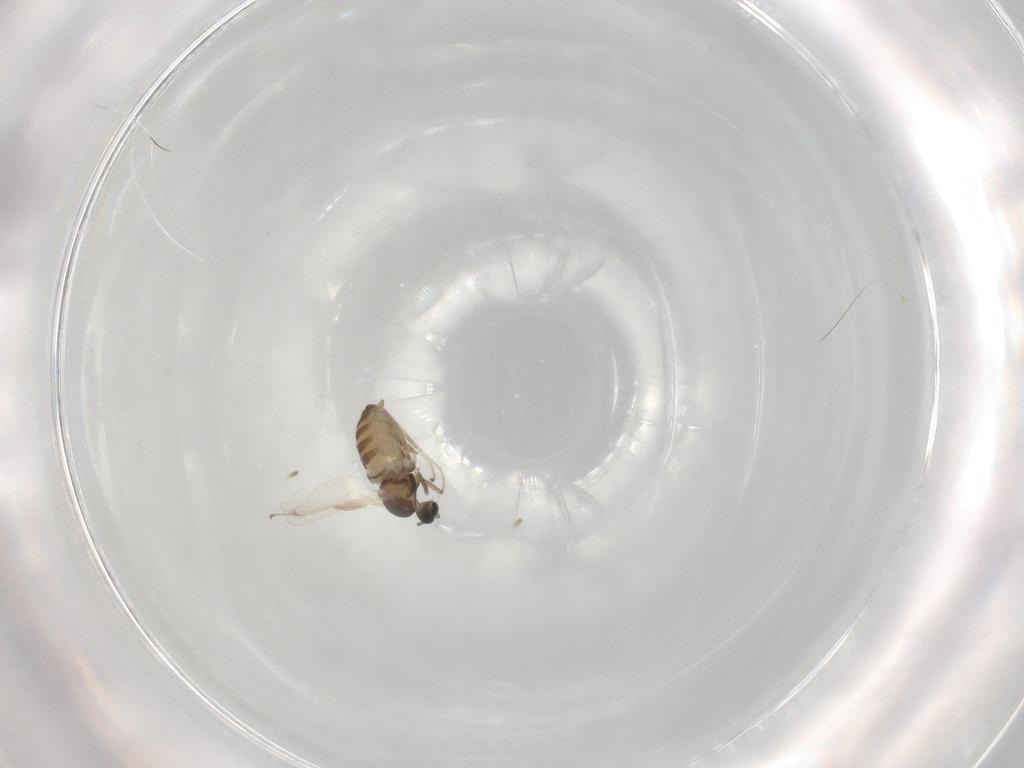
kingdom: Animalia
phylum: Arthropoda
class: Insecta
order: Diptera
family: Cecidomyiidae
